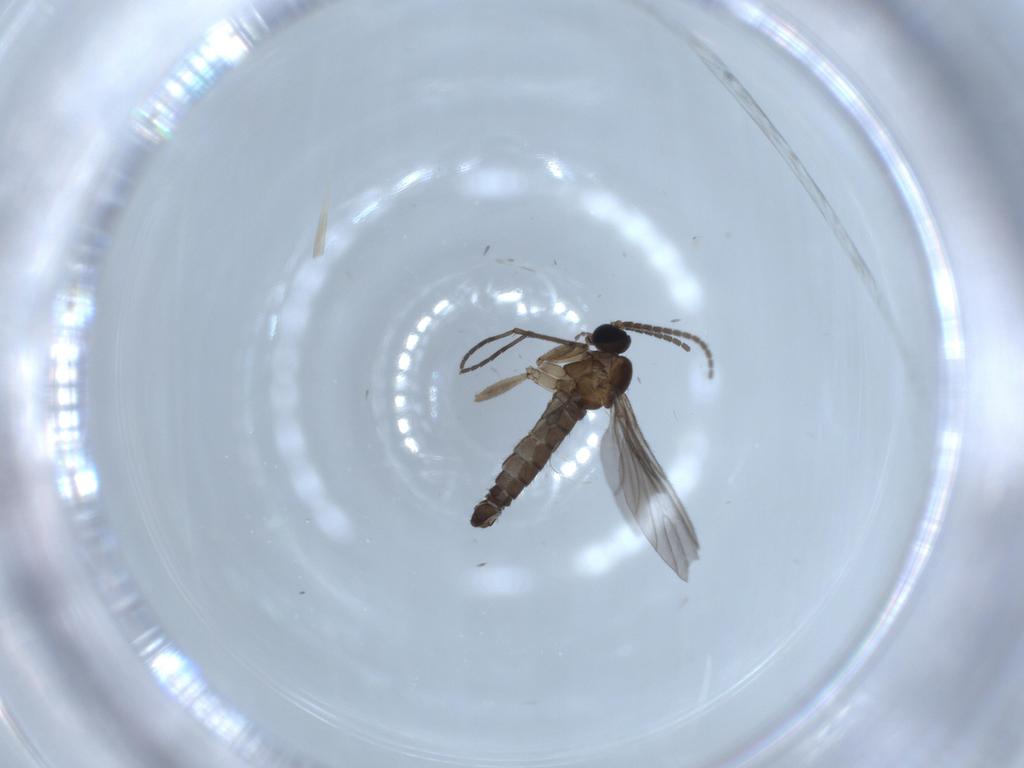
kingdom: Animalia
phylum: Arthropoda
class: Insecta
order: Diptera
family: Sciaridae
